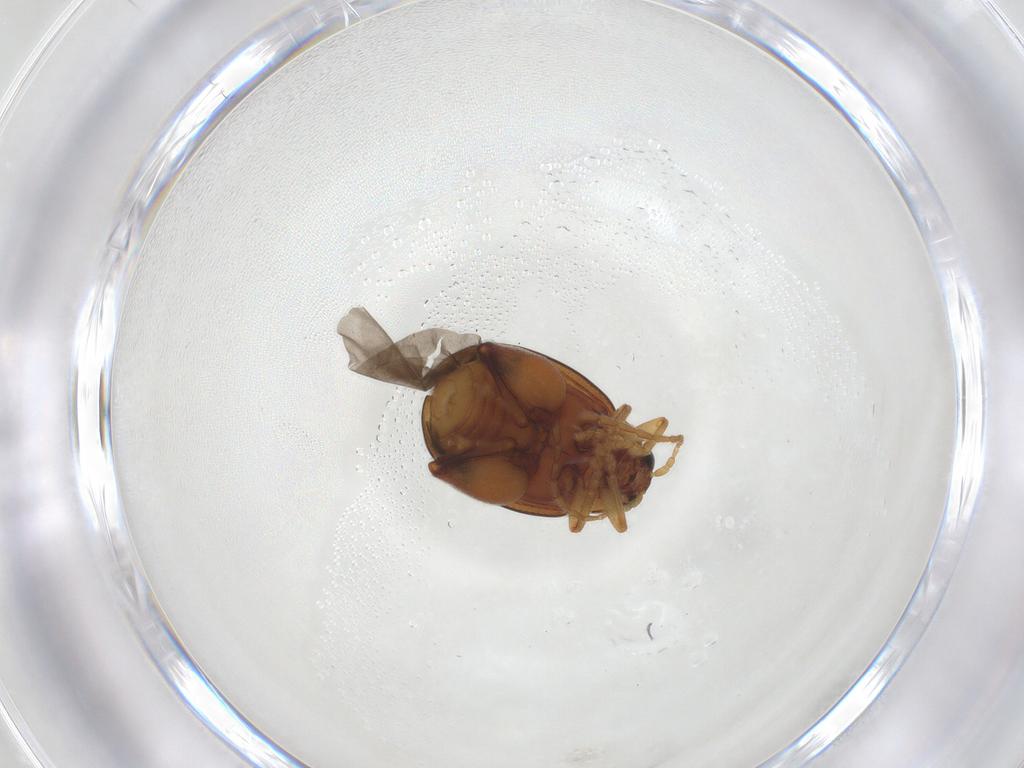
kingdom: Animalia
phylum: Arthropoda
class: Insecta
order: Coleoptera
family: Chrysomelidae
